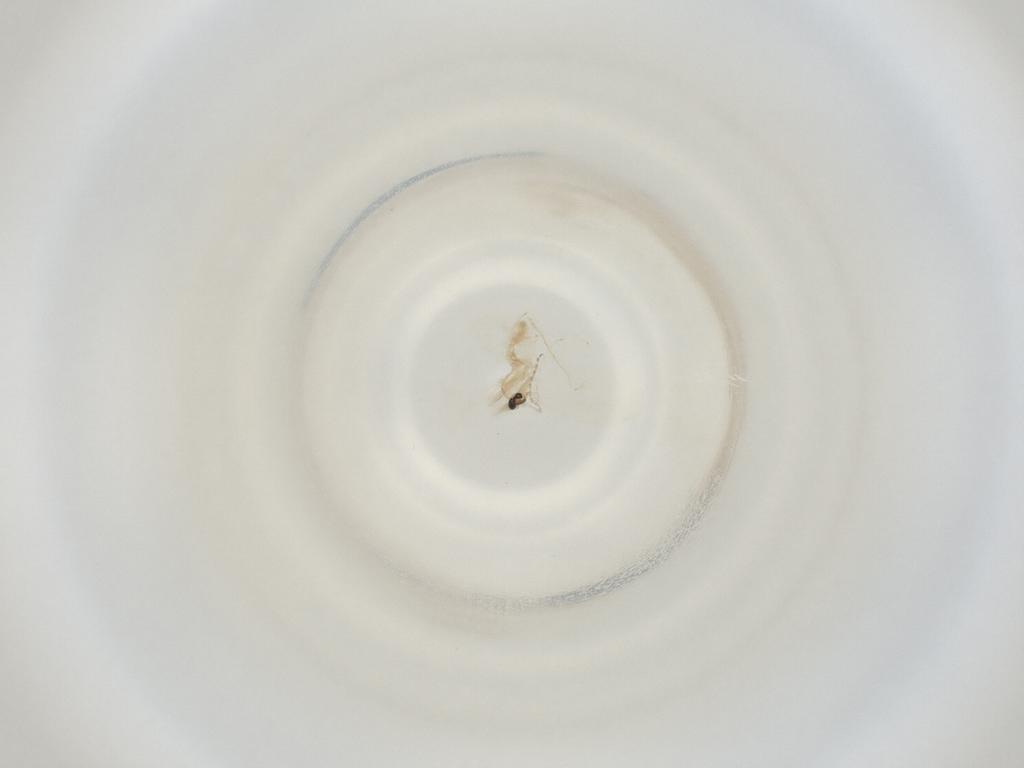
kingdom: Animalia
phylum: Arthropoda
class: Insecta
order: Diptera
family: Cecidomyiidae
